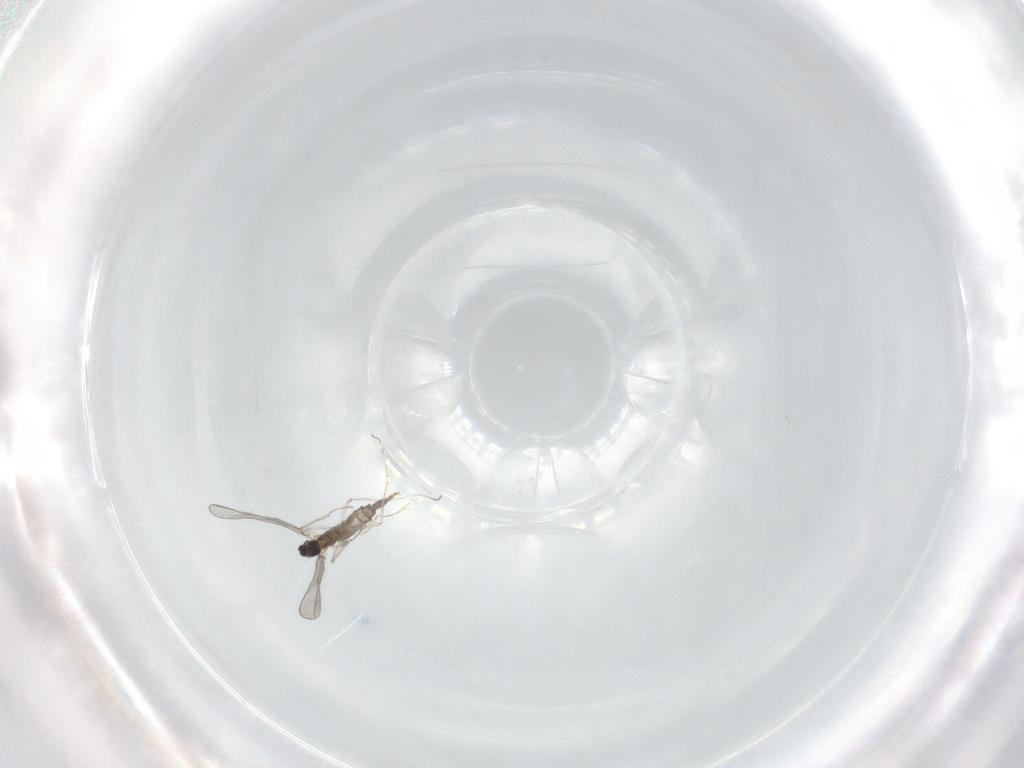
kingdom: Animalia
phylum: Arthropoda
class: Insecta
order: Diptera
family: Cecidomyiidae
